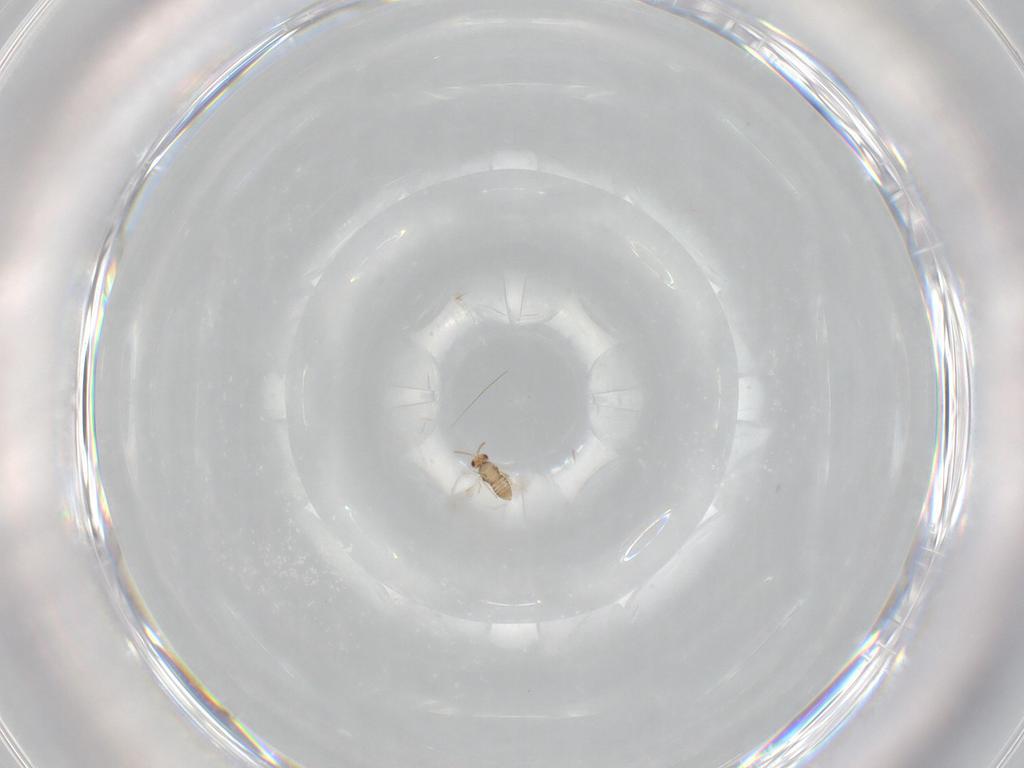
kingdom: Animalia
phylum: Arthropoda
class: Insecta
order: Hymenoptera
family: Aphelinidae
